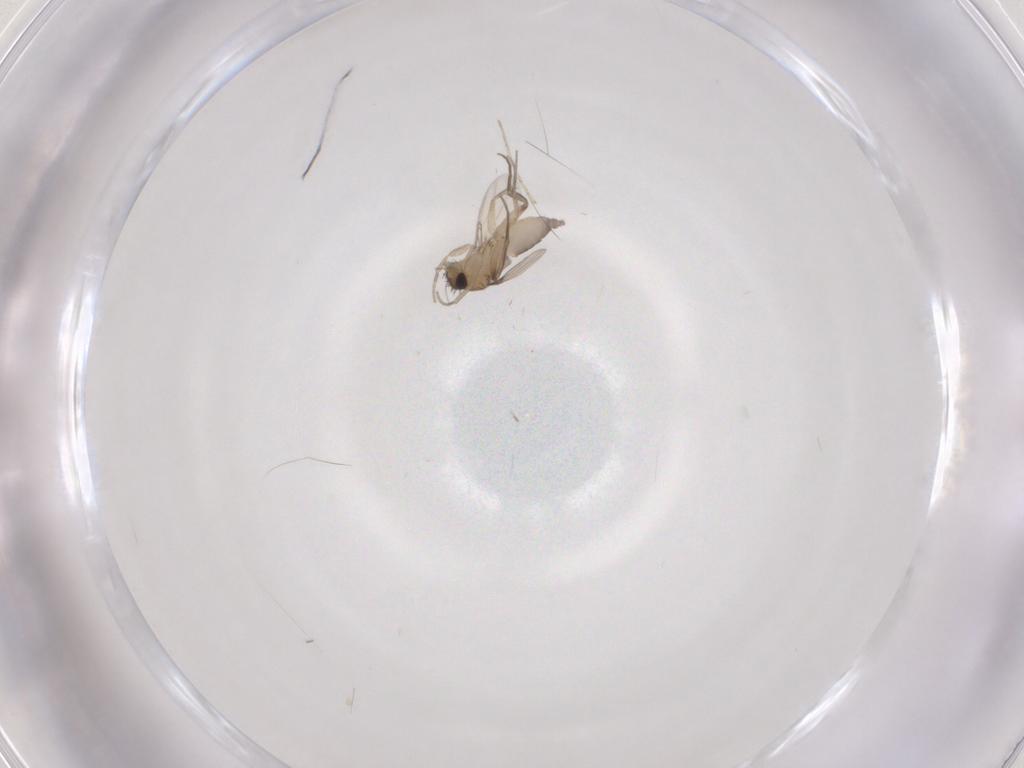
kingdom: Animalia
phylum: Arthropoda
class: Insecta
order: Diptera
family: Phoridae
